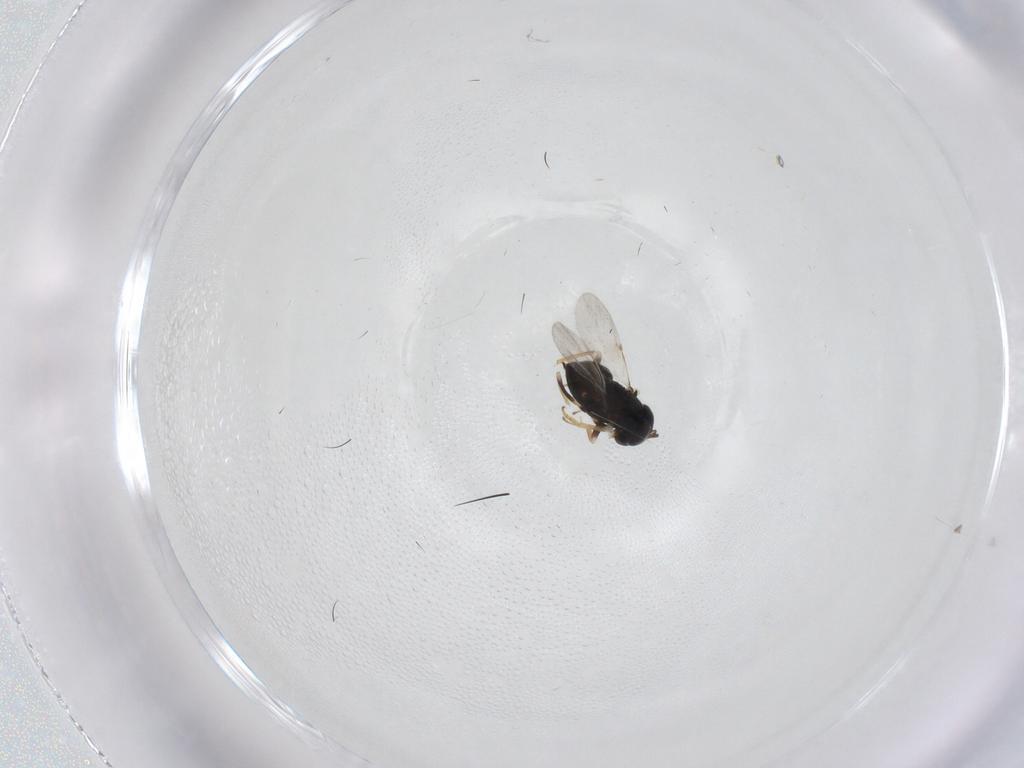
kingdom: Animalia
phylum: Arthropoda
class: Insecta
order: Hymenoptera
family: Encyrtidae
